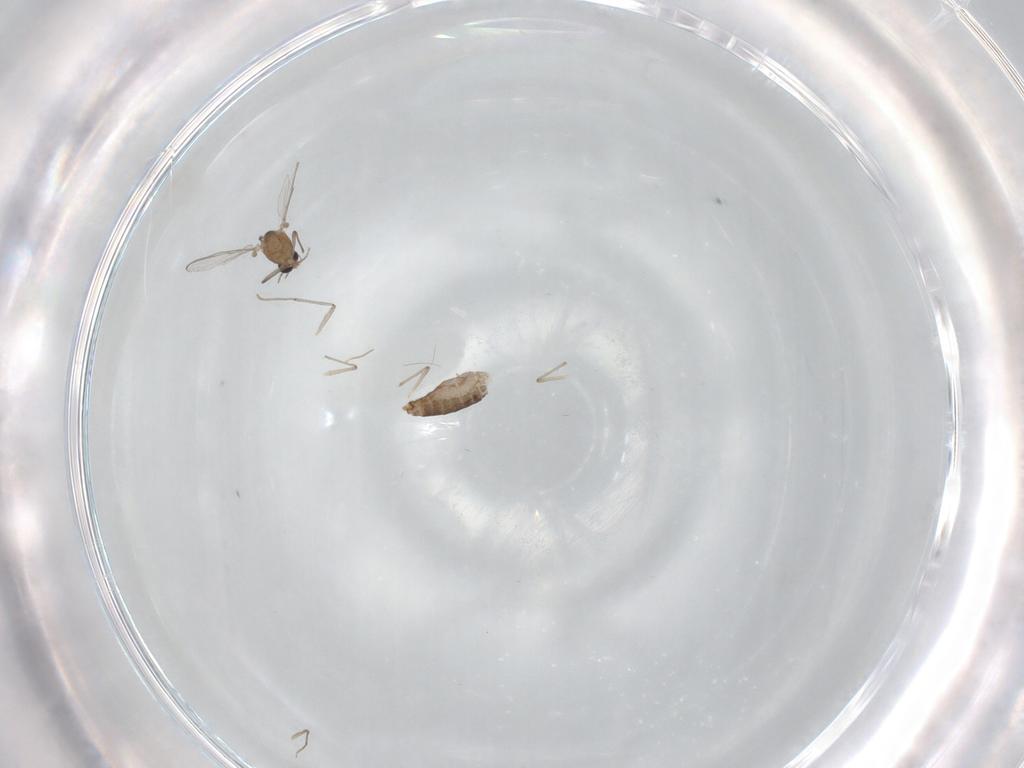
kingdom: Animalia
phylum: Arthropoda
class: Insecta
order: Diptera
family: Chironomidae
